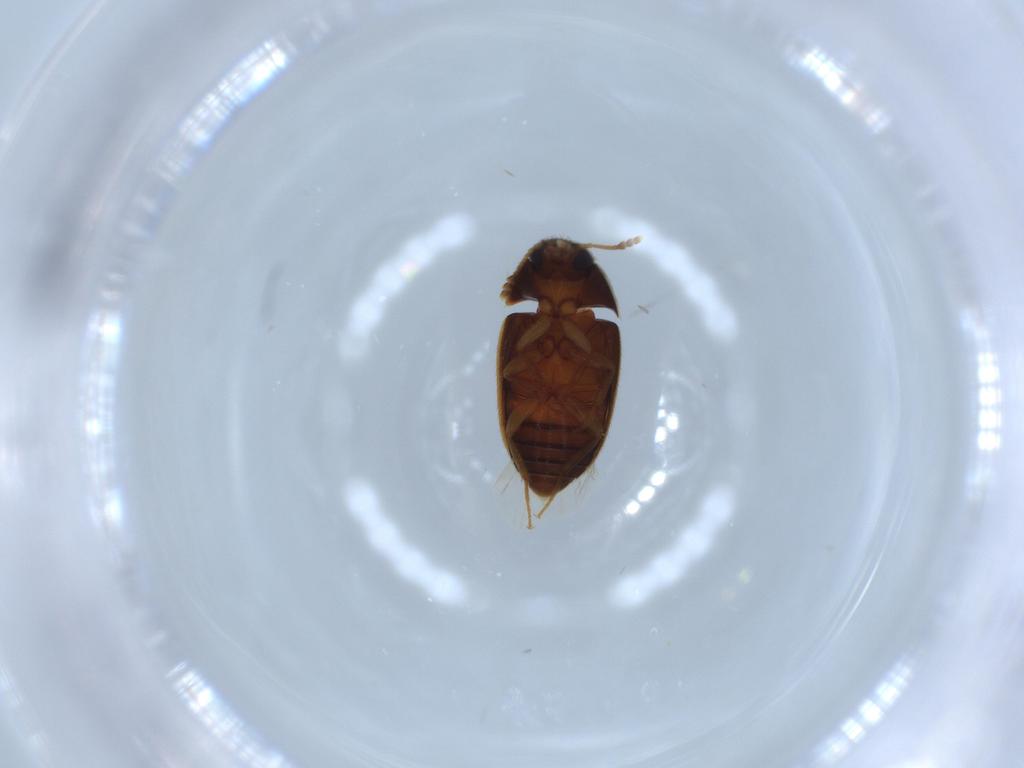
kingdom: Animalia
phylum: Arthropoda
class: Insecta
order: Coleoptera
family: Mycetophagidae
